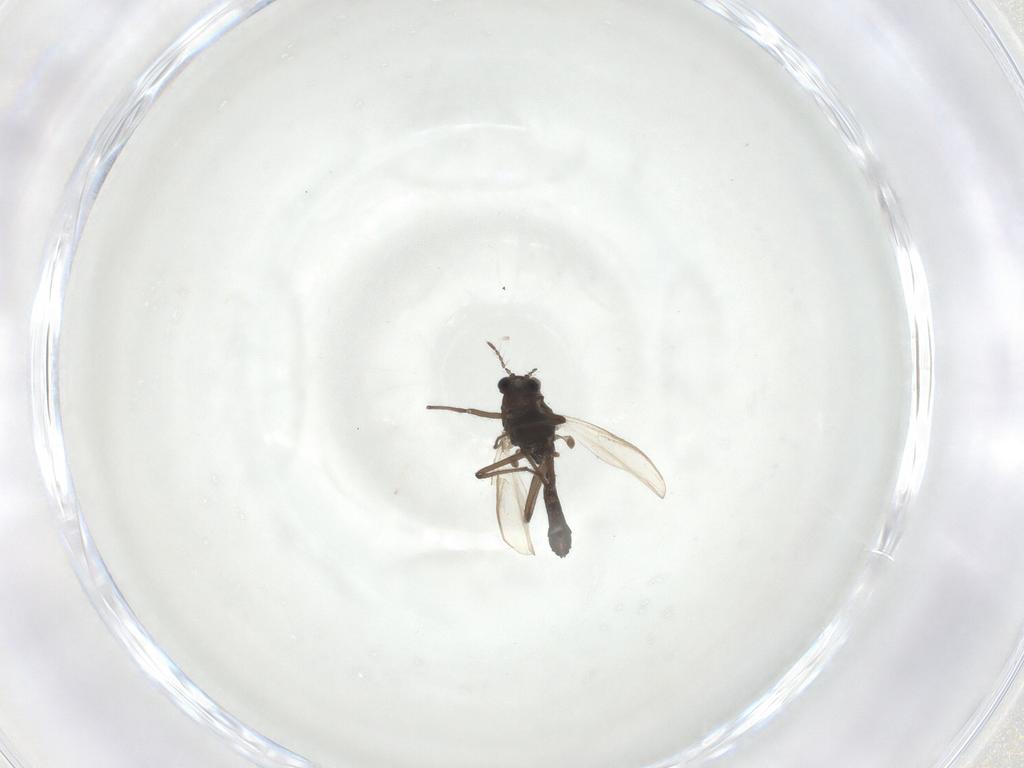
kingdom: Animalia
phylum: Arthropoda
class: Insecta
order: Diptera
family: Chironomidae
